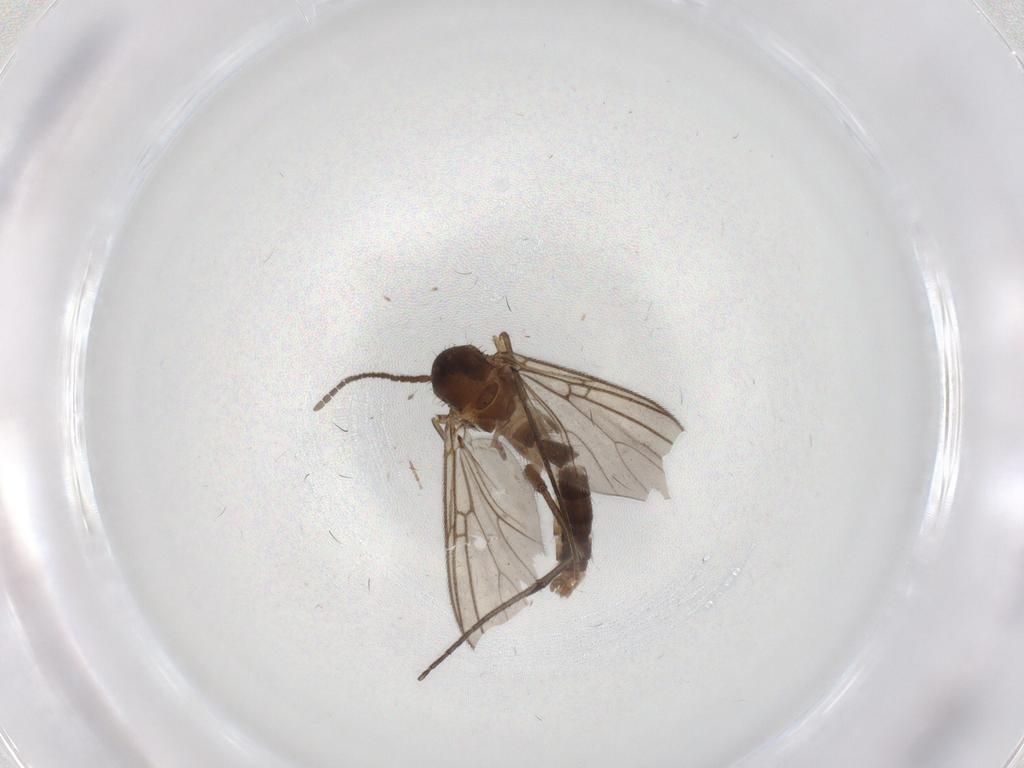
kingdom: Animalia
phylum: Arthropoda
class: Insecta
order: Diptera
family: Mycetophilidae
